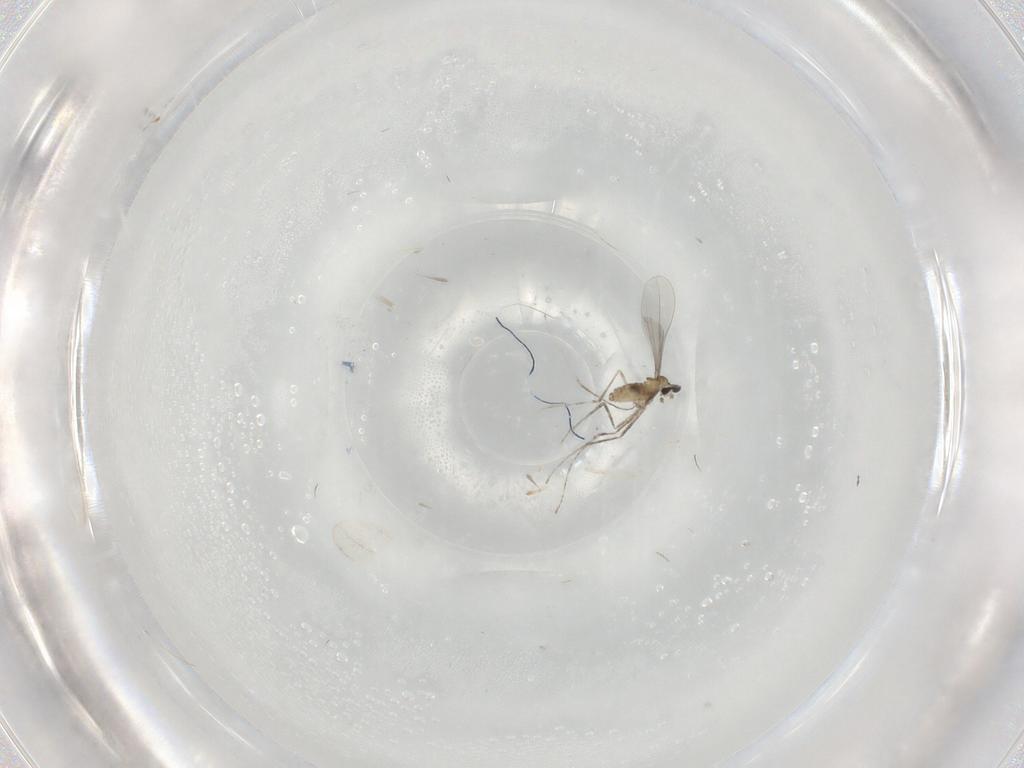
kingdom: Animalia
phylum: Arthropoda
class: Insecta
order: Diptera
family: Cecidomyiidae
